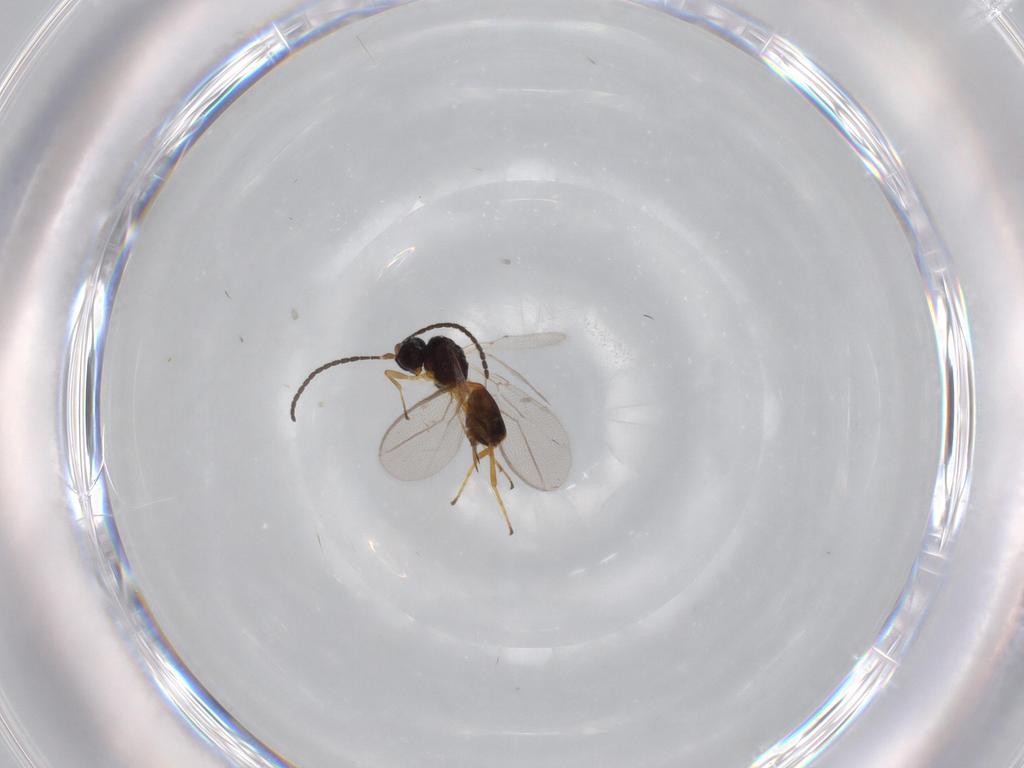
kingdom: Animalia
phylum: Arthropoda
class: Insecta
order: Hymenoptera
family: Braconidae
